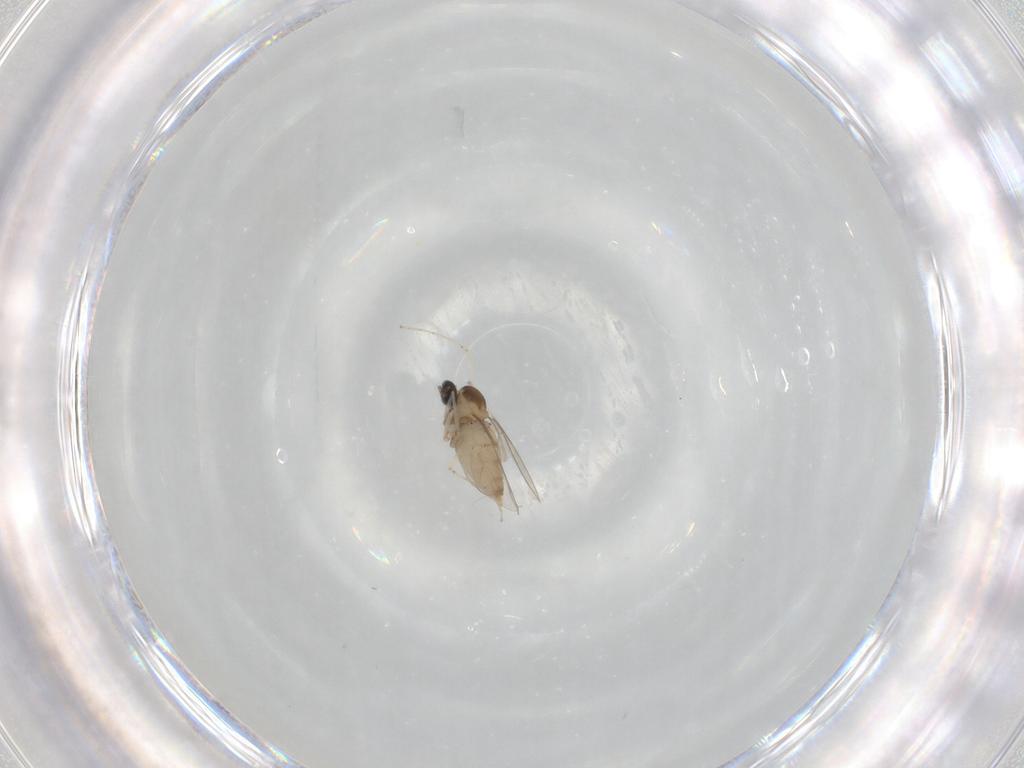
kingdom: Animalia
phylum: Arthropoda
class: Insecta
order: Diptera
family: Cecidomyiidae
